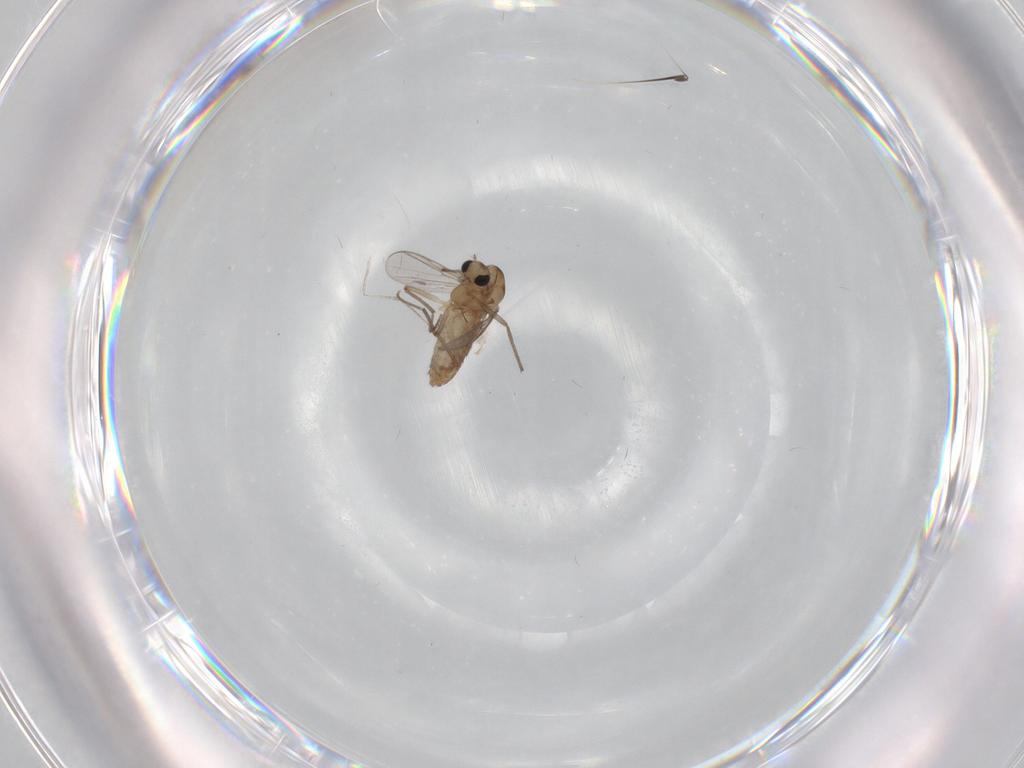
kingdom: Animalia
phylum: Arthropoda
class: Insecta
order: Diptera
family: Chironomidae
